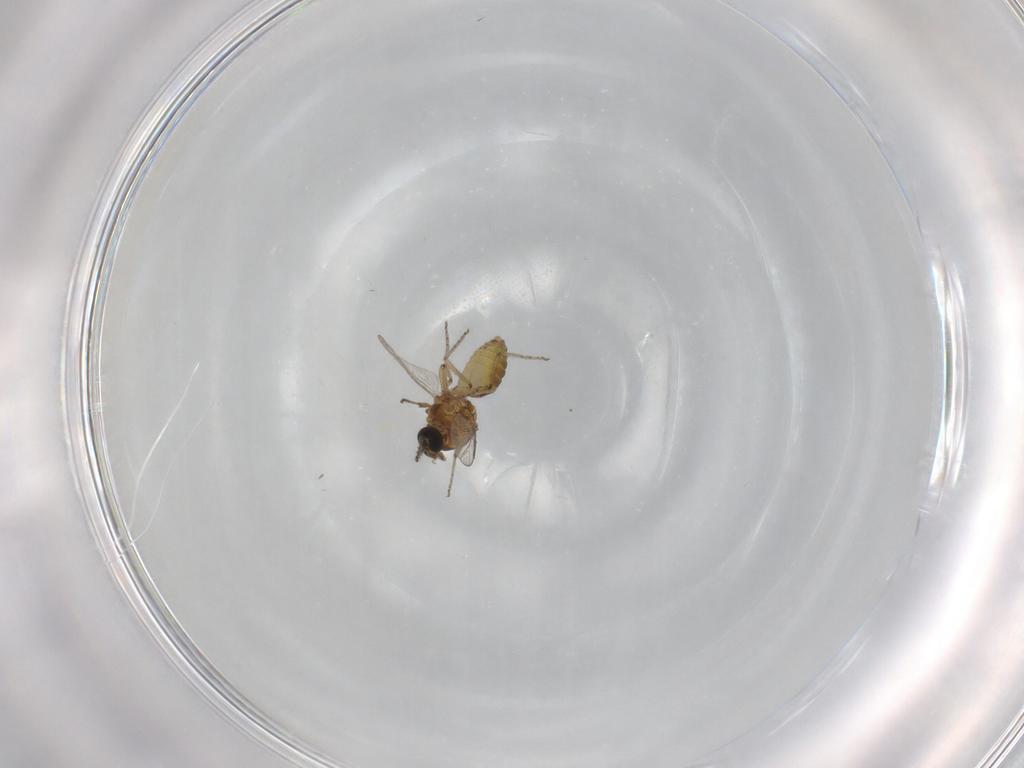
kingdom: Animalia
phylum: Arthropoda
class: Insecta
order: Diptera
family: Ceratopogonidae
